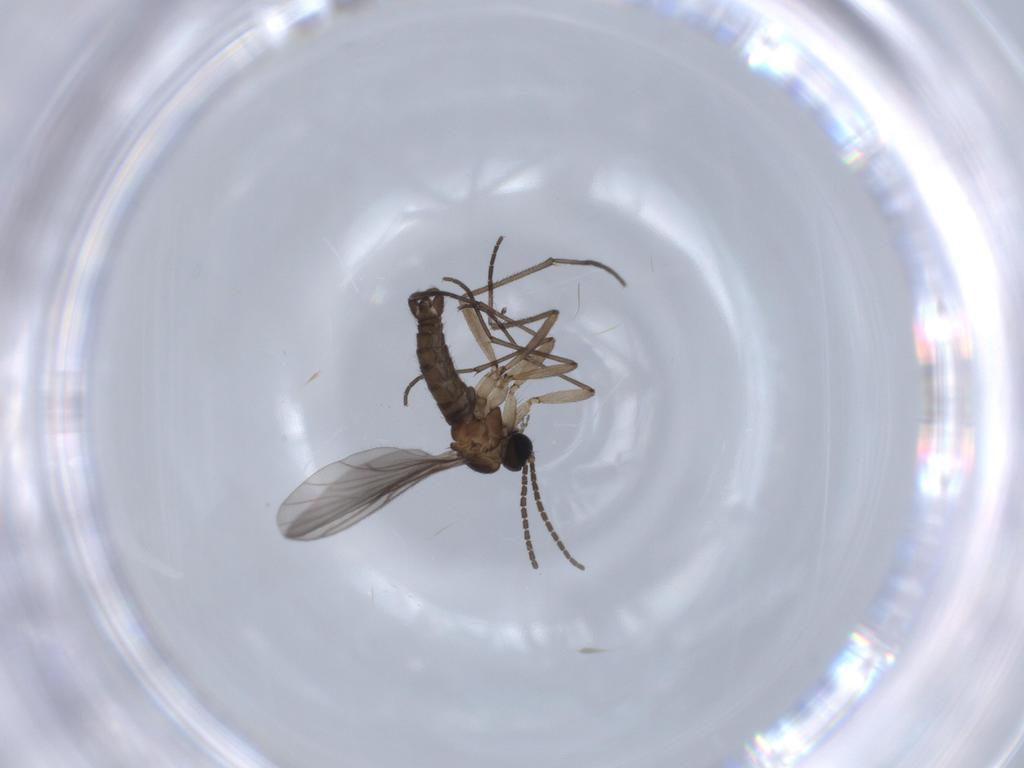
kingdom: Animalia
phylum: Arthropoda
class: Insecta
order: Diptera
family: Sciaridae
